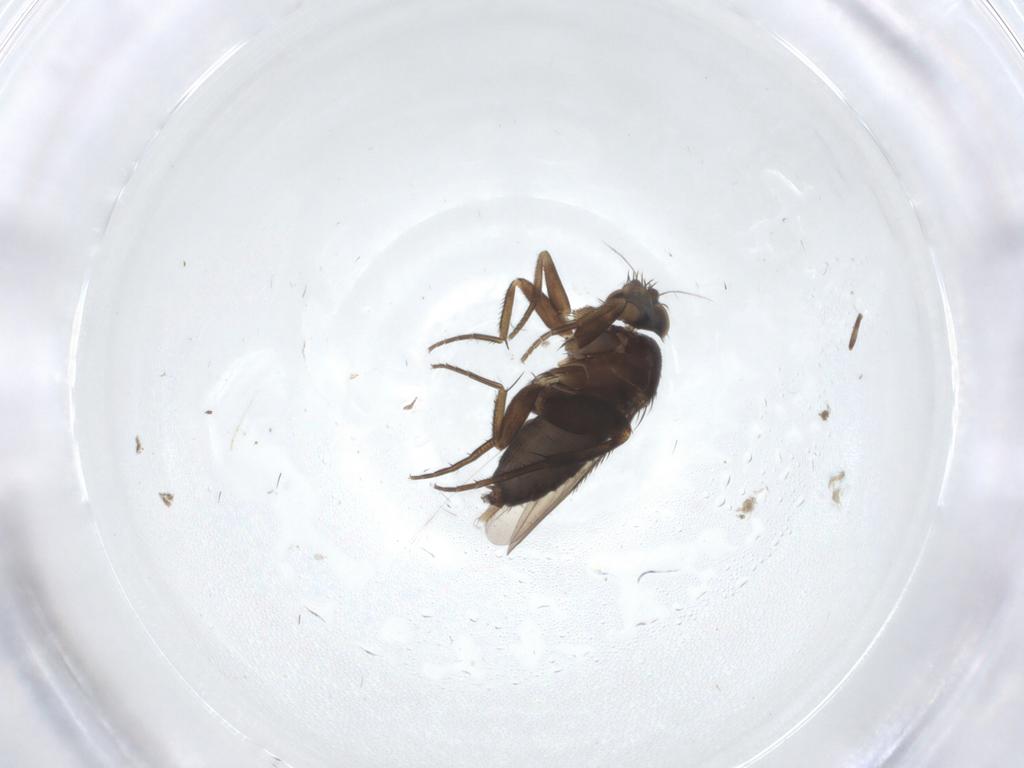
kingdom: Animalia
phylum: Arthropoda
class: Insecta
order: Diptera
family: Phoridae
